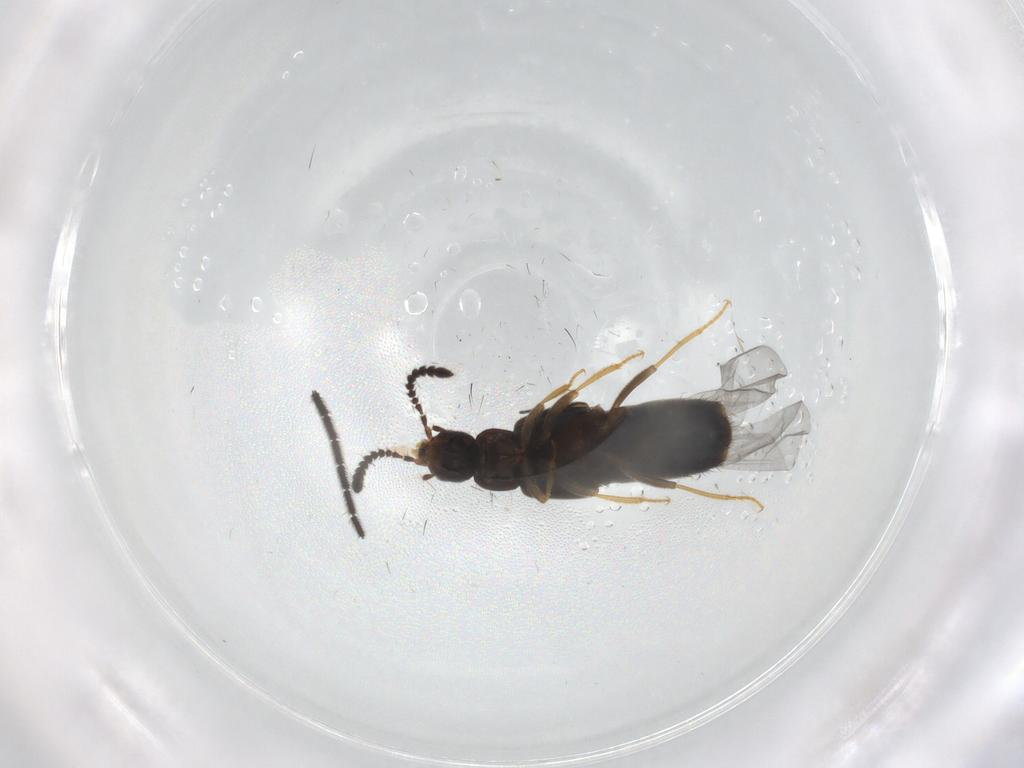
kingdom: Animalia
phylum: Arthropoda
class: Insecta
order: Coleoptera
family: Staphylinidae
